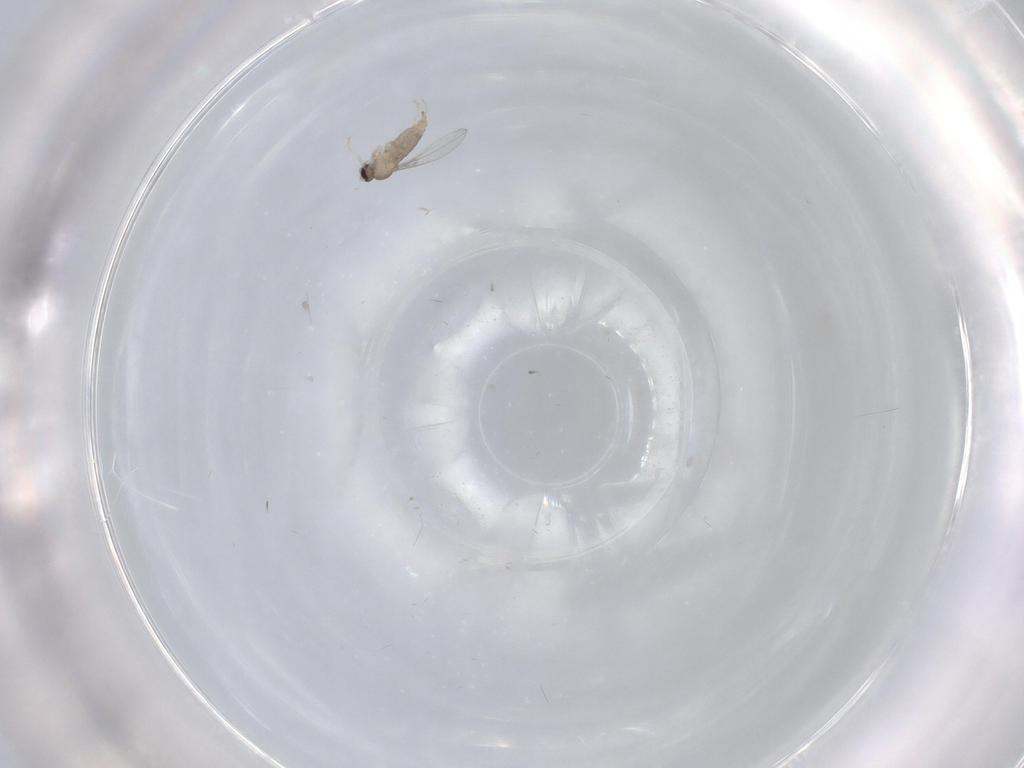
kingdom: Animalia
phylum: Arthropoda
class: Insecta
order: Diptera
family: Cecidomyiidae
